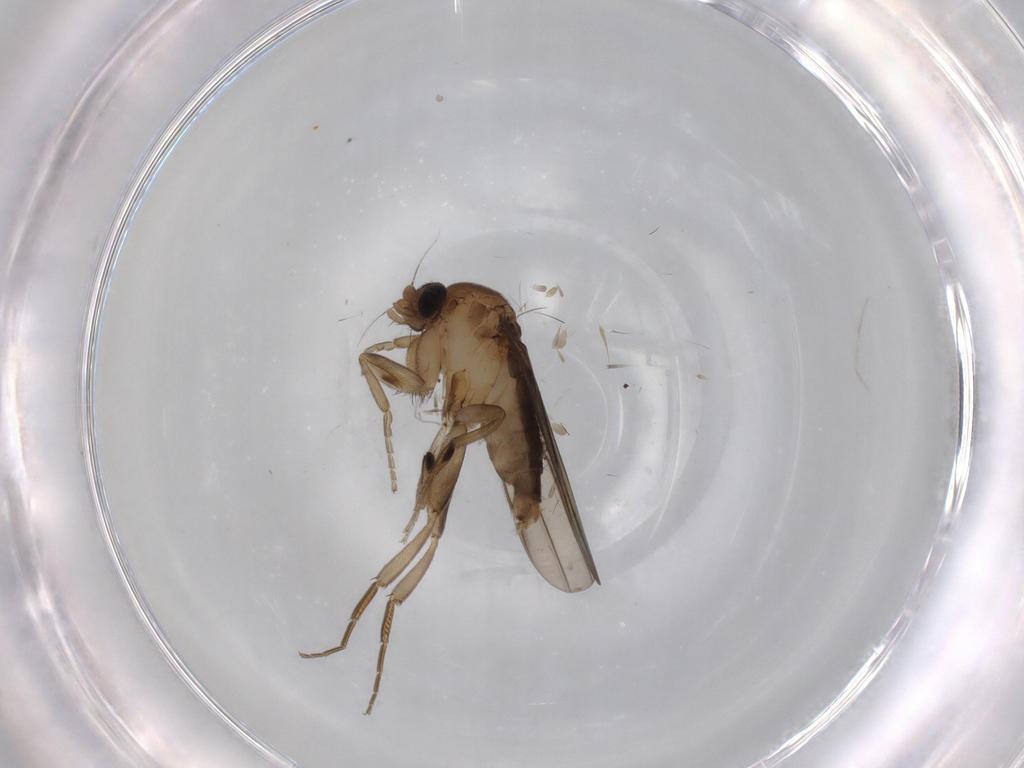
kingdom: Animalia
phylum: Arthropoda
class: Insecta
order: Diptera
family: Phoridae
